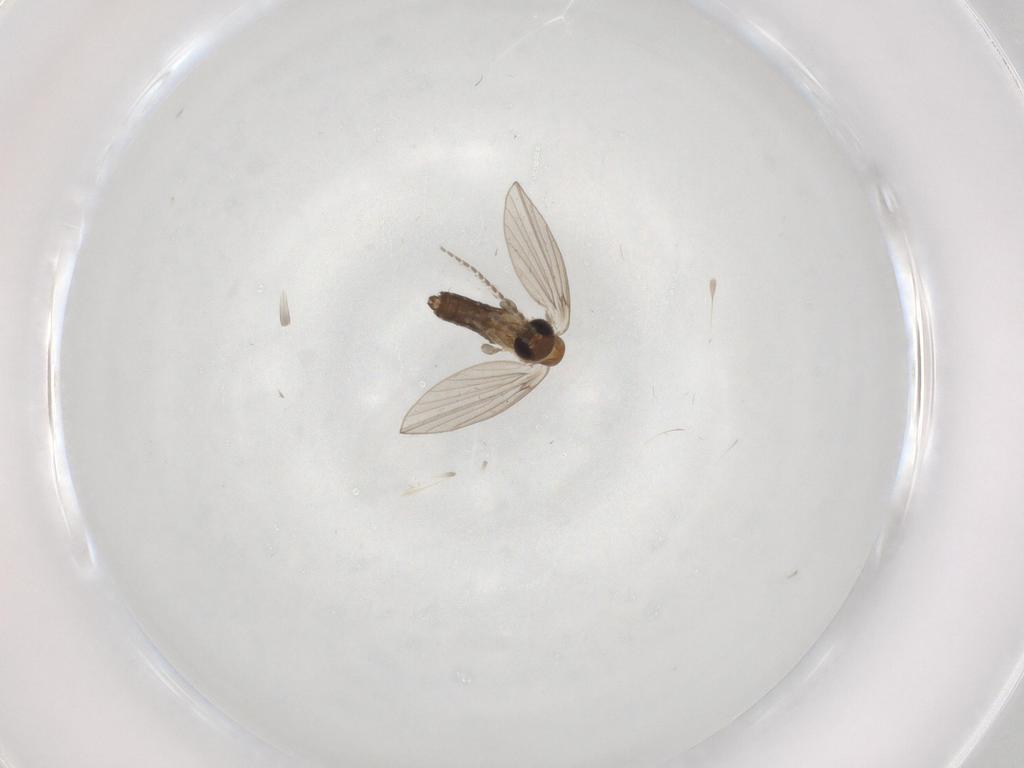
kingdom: Animalia
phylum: Arthropoda
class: Insecta
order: Diptera
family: Psychodidae
